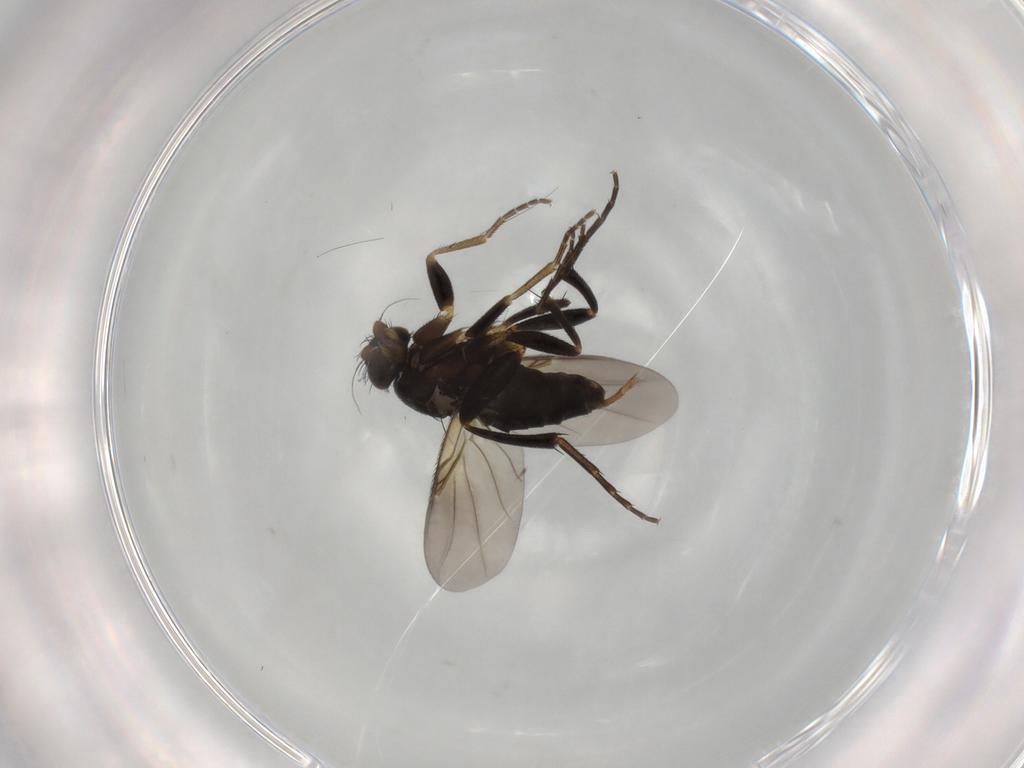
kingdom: Animalia
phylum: Arthropoda
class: Insecta
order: Diptera
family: Phoridae
